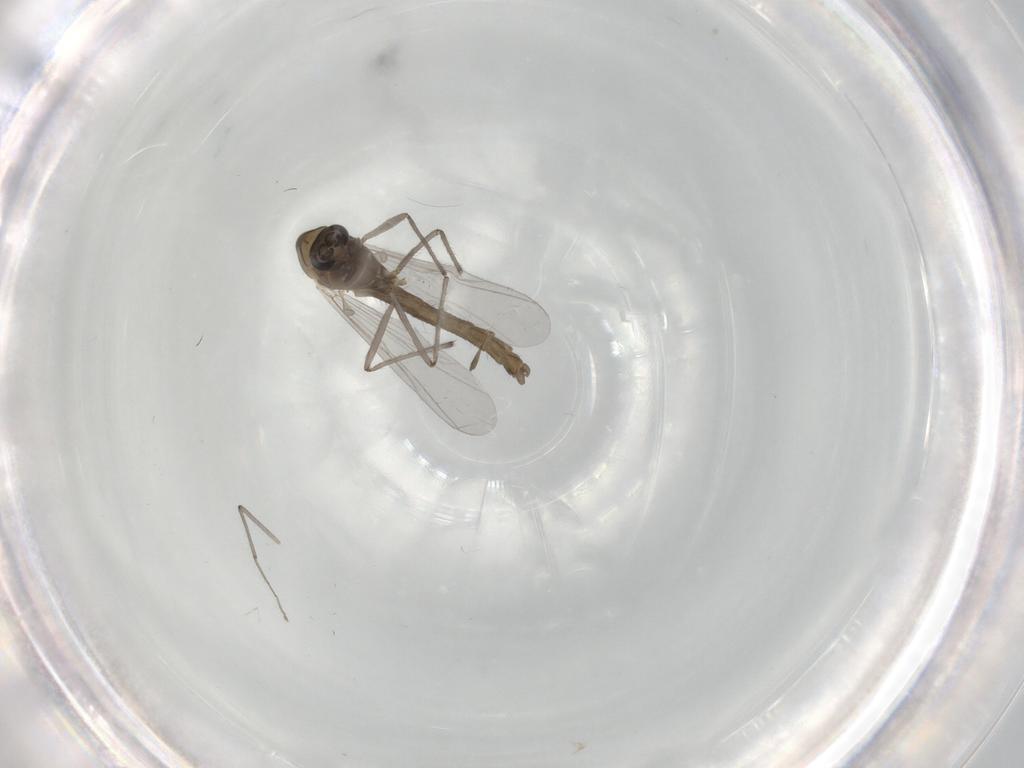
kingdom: Animalia
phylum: Arthropoda
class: Insecta
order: Diptera
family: Chironomidae
